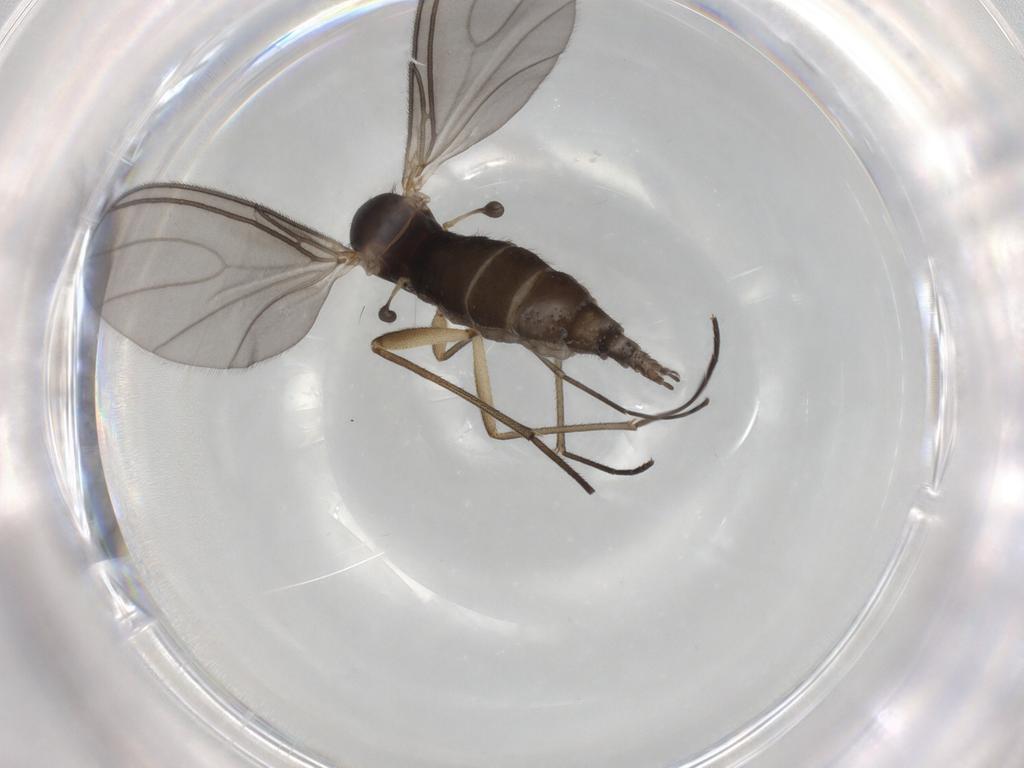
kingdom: Animalia
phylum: Arthropoda
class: Insecta
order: Diptera
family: Sciaridae
